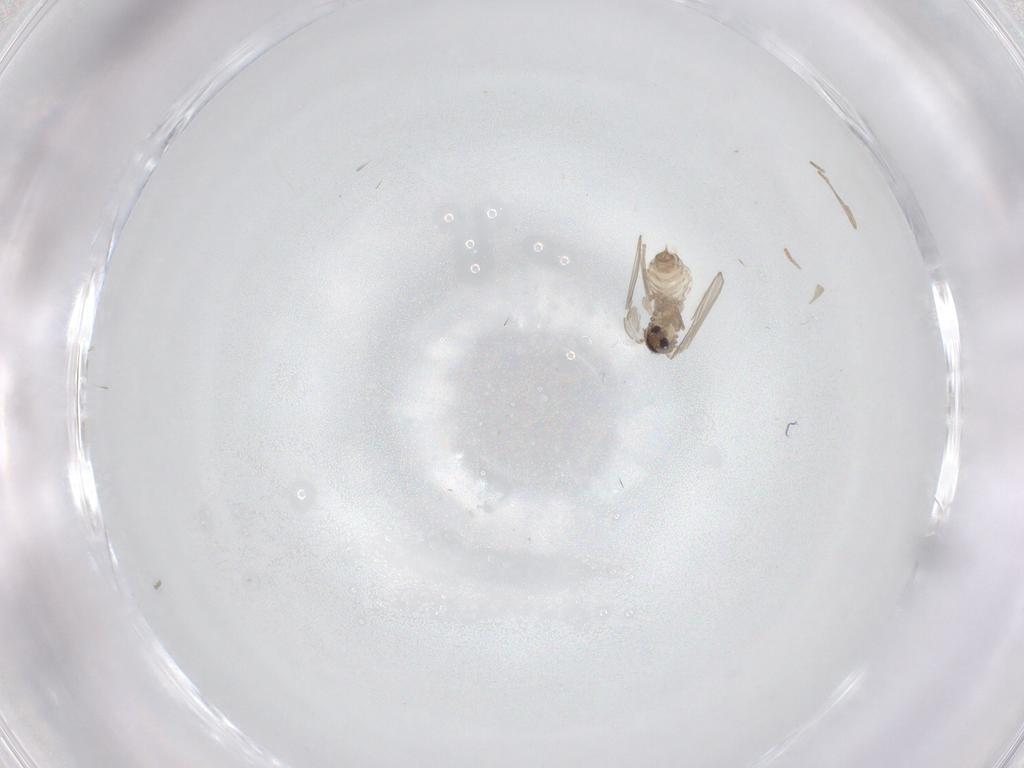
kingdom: Animalia
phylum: Arthropoda
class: Insecta
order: Diptera
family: Psychodidae
